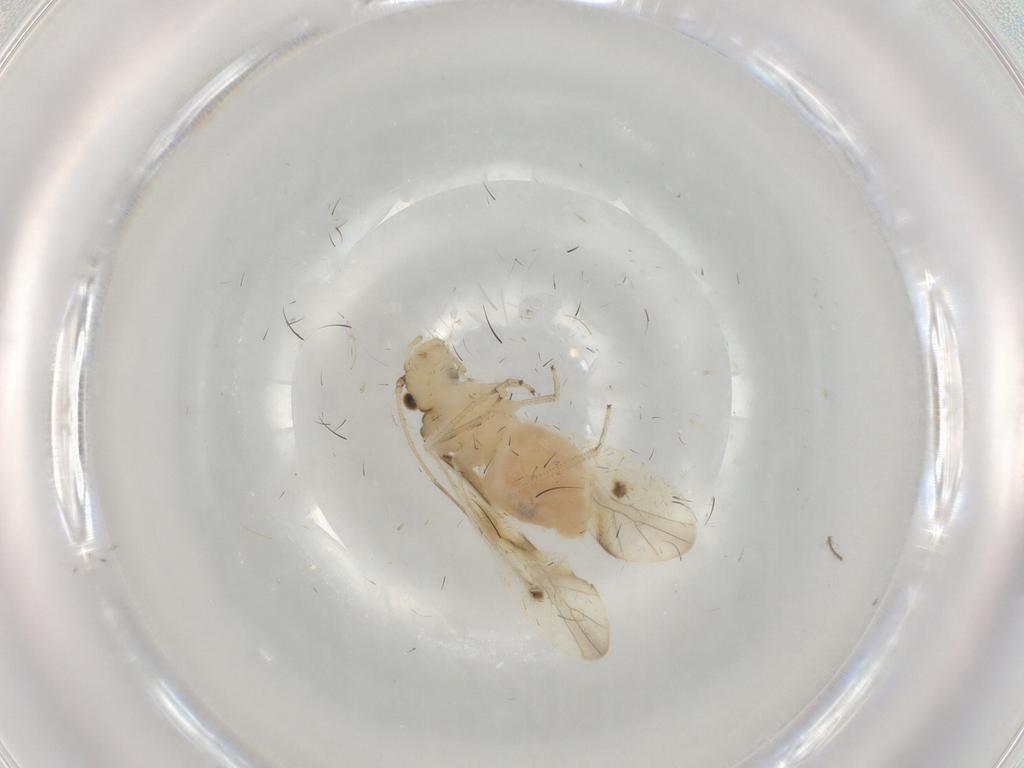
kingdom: Animalia
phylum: Arthropoda
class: Insecta
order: Psocodea
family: Caeciliusidae
